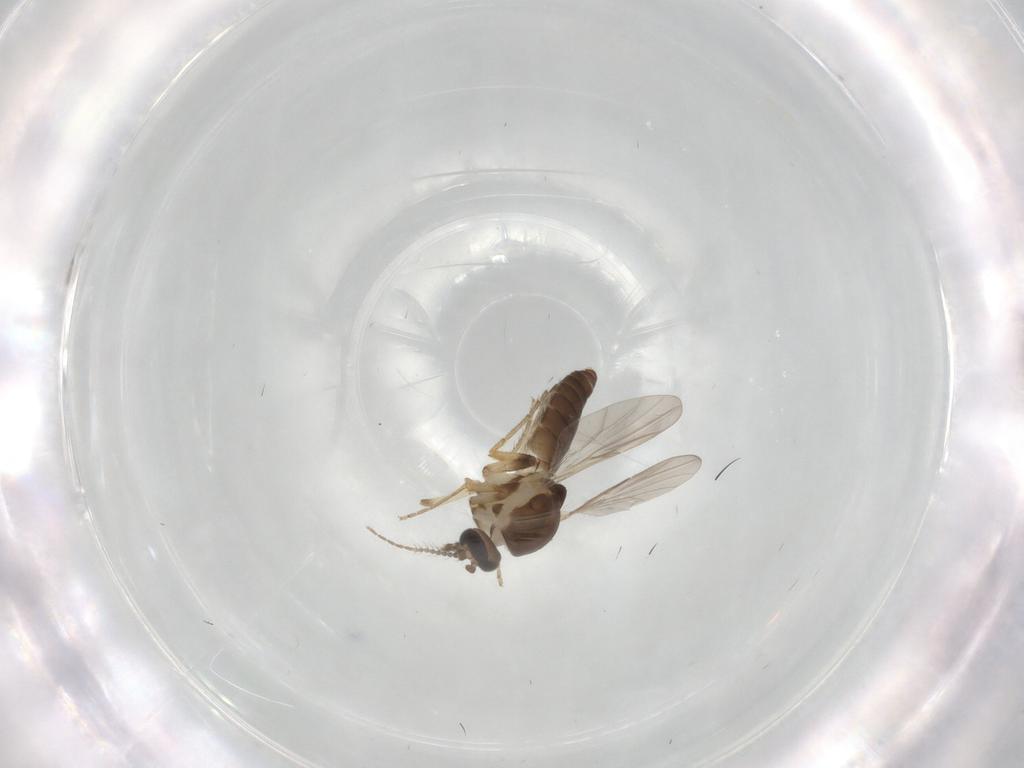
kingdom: Animalia
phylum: Arthropoda
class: Insecta
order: Diptera
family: Ceratopogonidae
